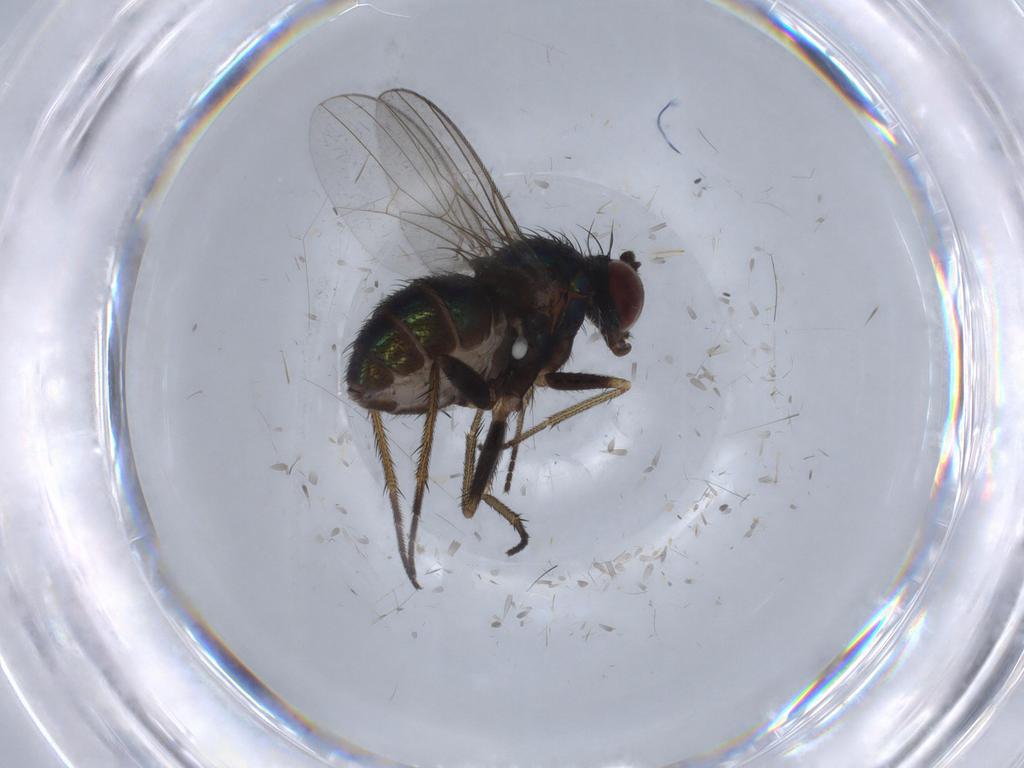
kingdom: Animalia
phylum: Arthropoda
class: Insecta
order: Diptera
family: Culicidae
